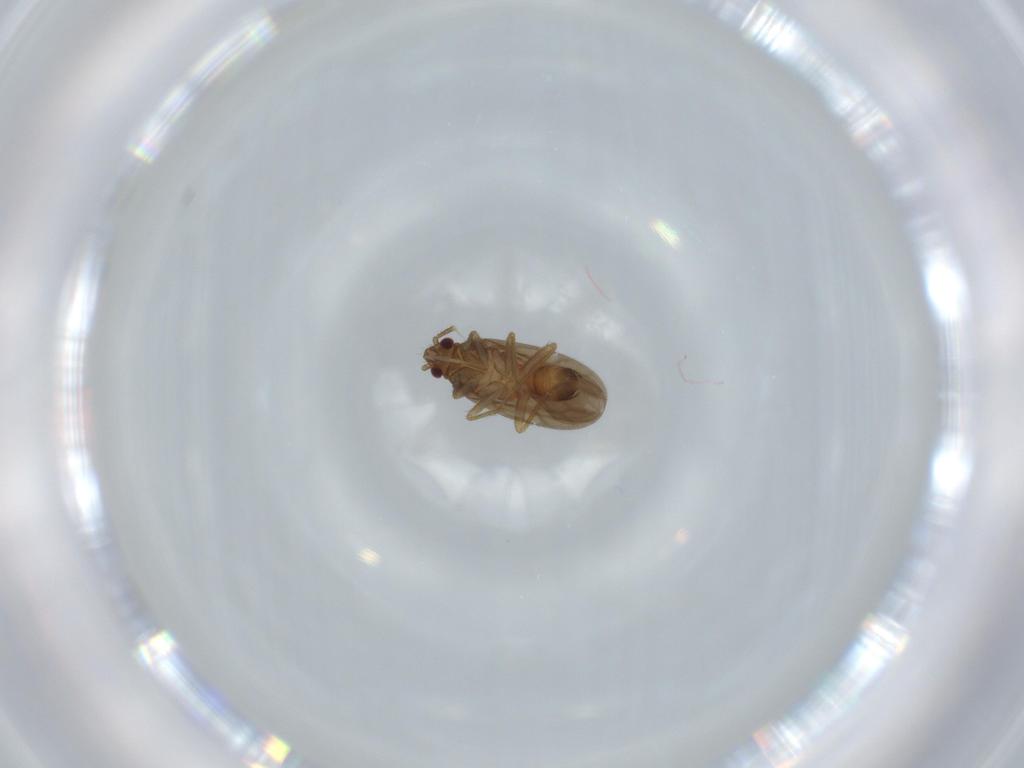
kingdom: Animalia
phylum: Arthropoda
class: Insecta
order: Hemiptera
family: Ceratocombidae
